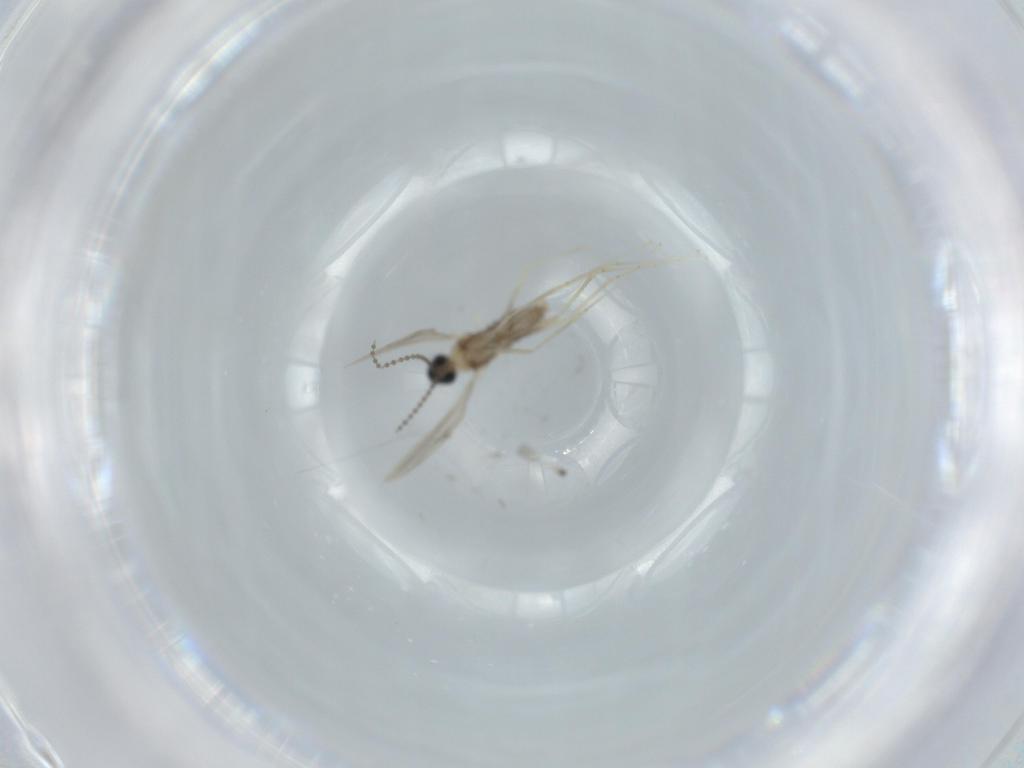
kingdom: Animalia
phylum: Arthropoda
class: Insecta
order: Diptera
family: Cecidomyiidae
